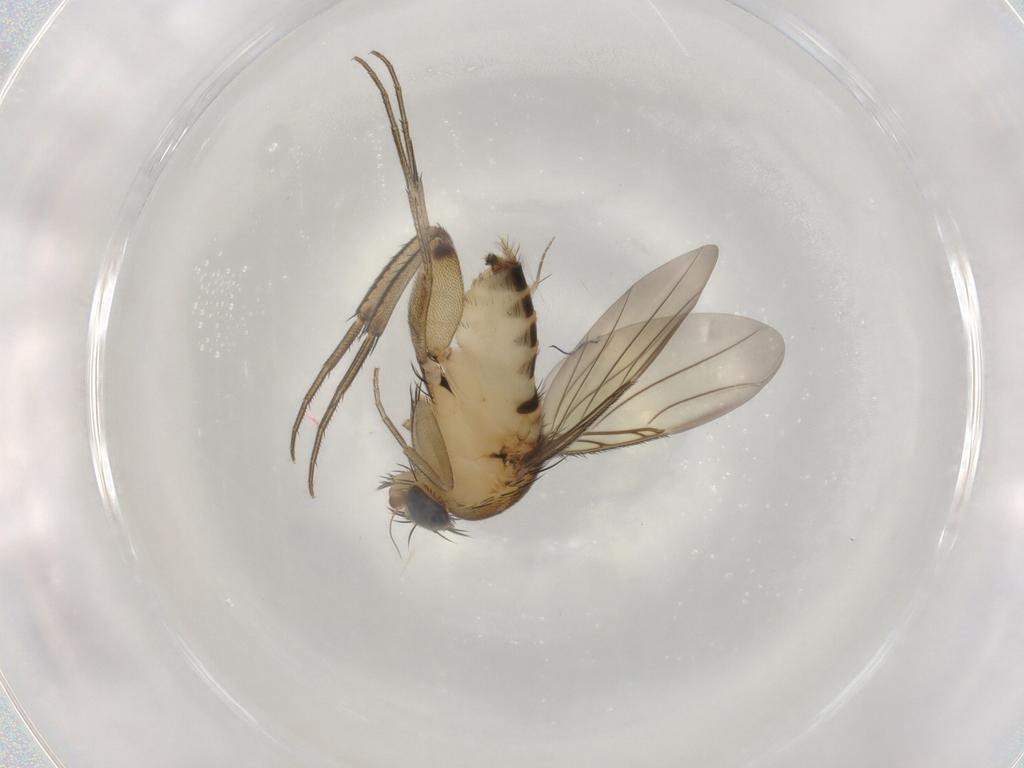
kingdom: Animalia
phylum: Arthropoda
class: Insecta
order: Diptera
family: Phoridae
